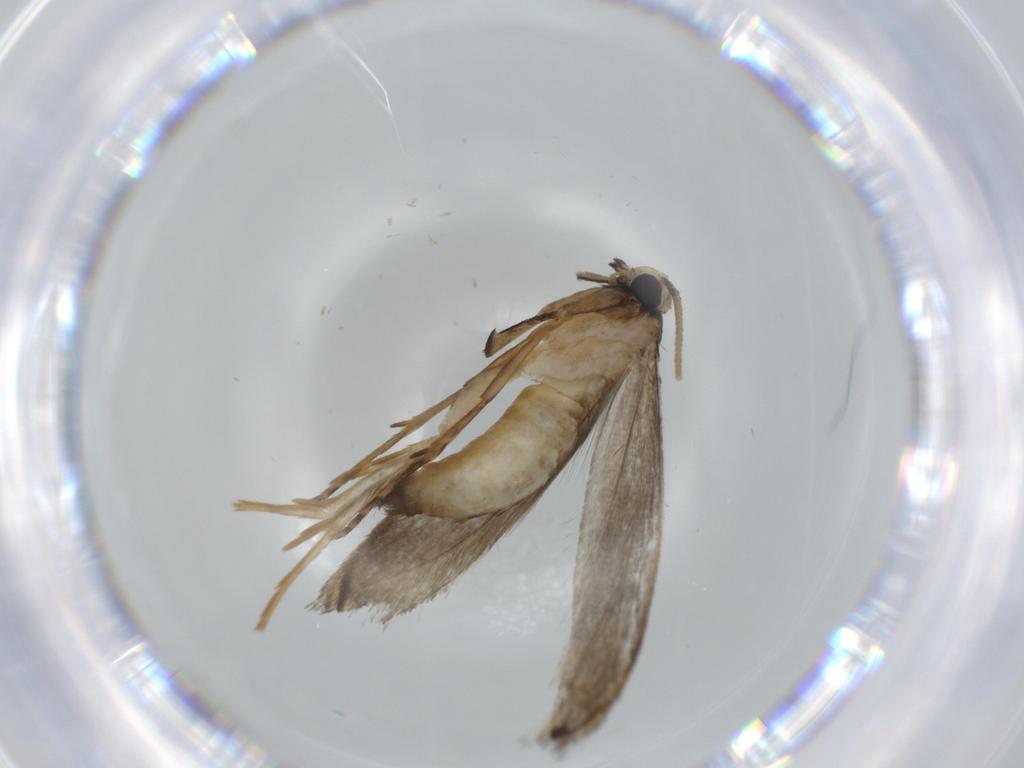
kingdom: Animalia
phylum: Arthropoda
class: Insecta
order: Lepidoptera
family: Tineidae
